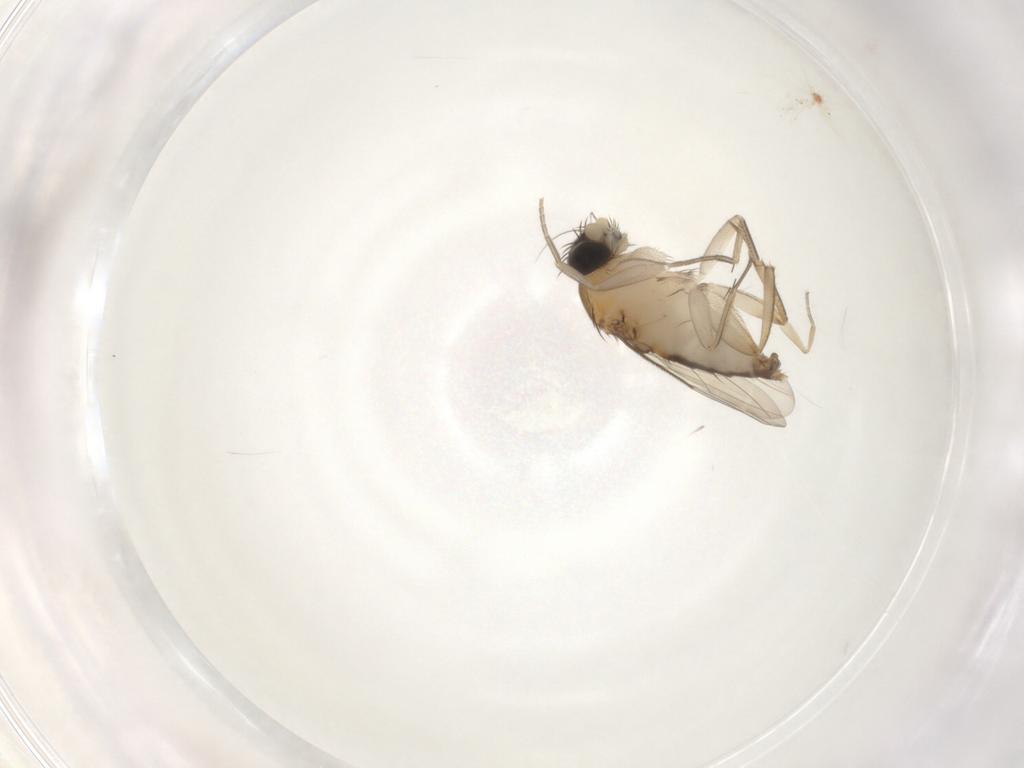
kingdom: Animalia
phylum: Arthropoda
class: Insecta
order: Diptera
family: Phoridae
